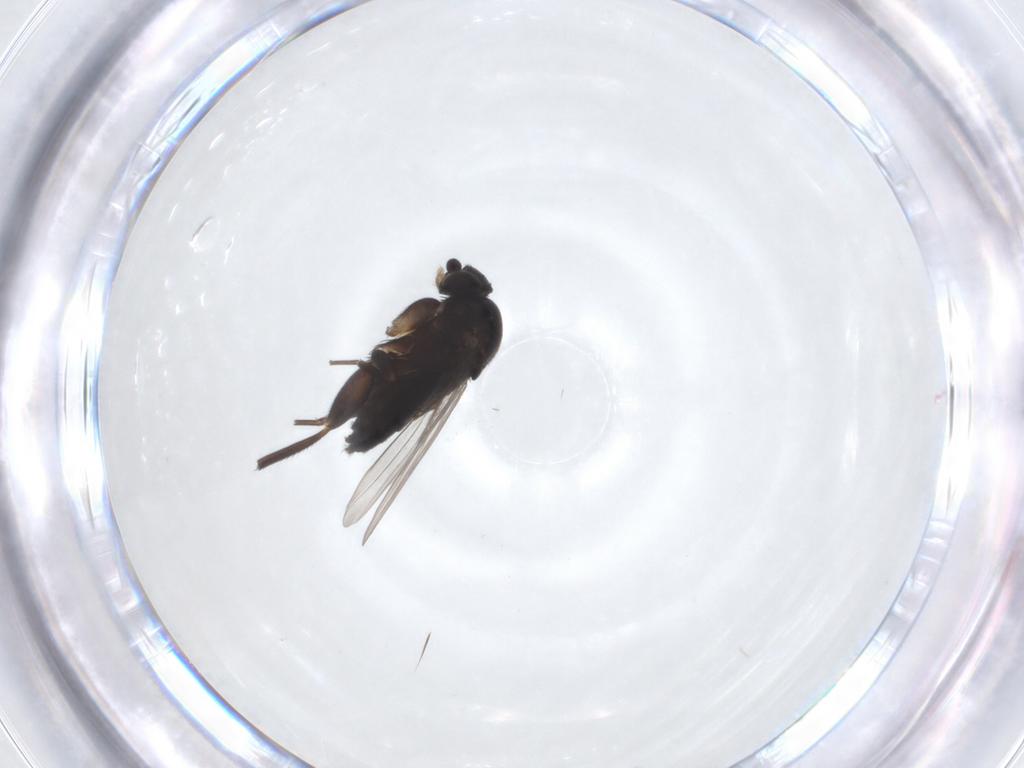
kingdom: Animalia
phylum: Arthropoda
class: Insecta
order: Diptera
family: Phoridae
